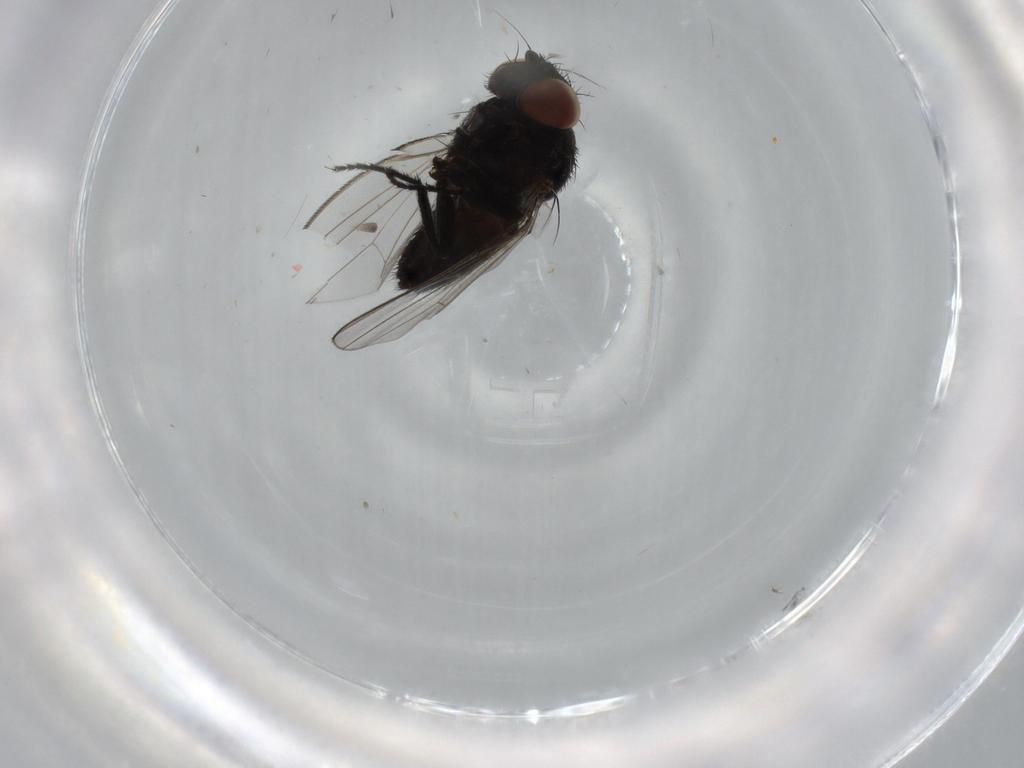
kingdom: Animalia
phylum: Arthropoda
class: Insecta
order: Diptera
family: Milichiidae
